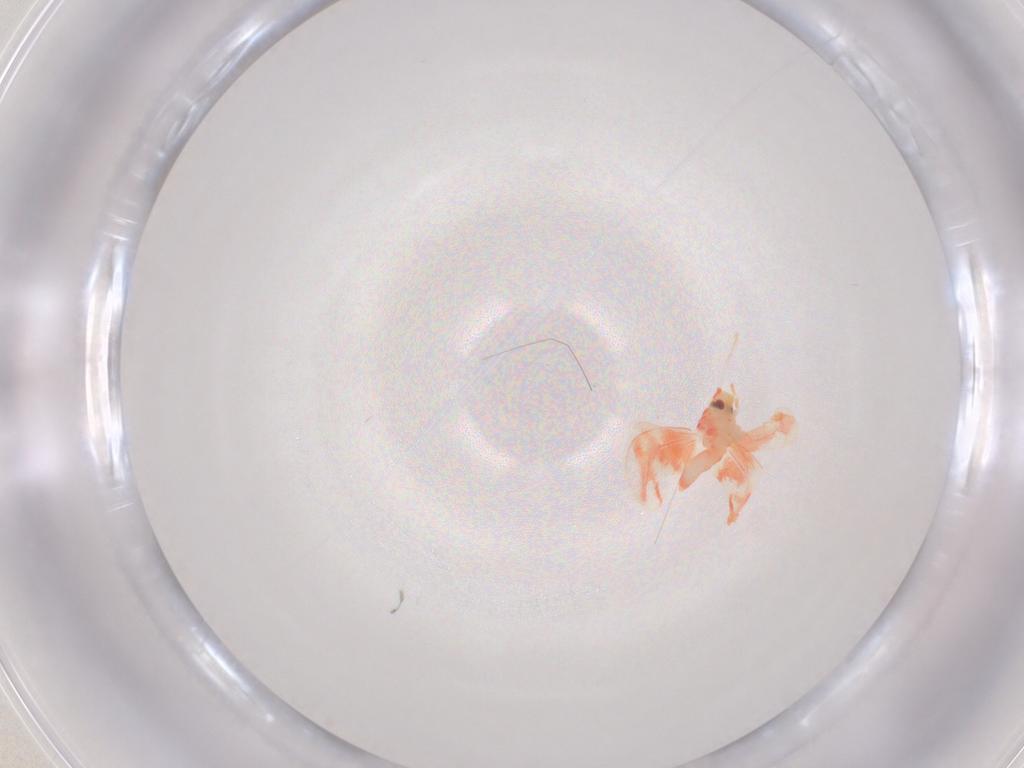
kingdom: Animalia
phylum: Arthropoda
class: Insecta
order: Hemiptera
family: Aleyrodidae
